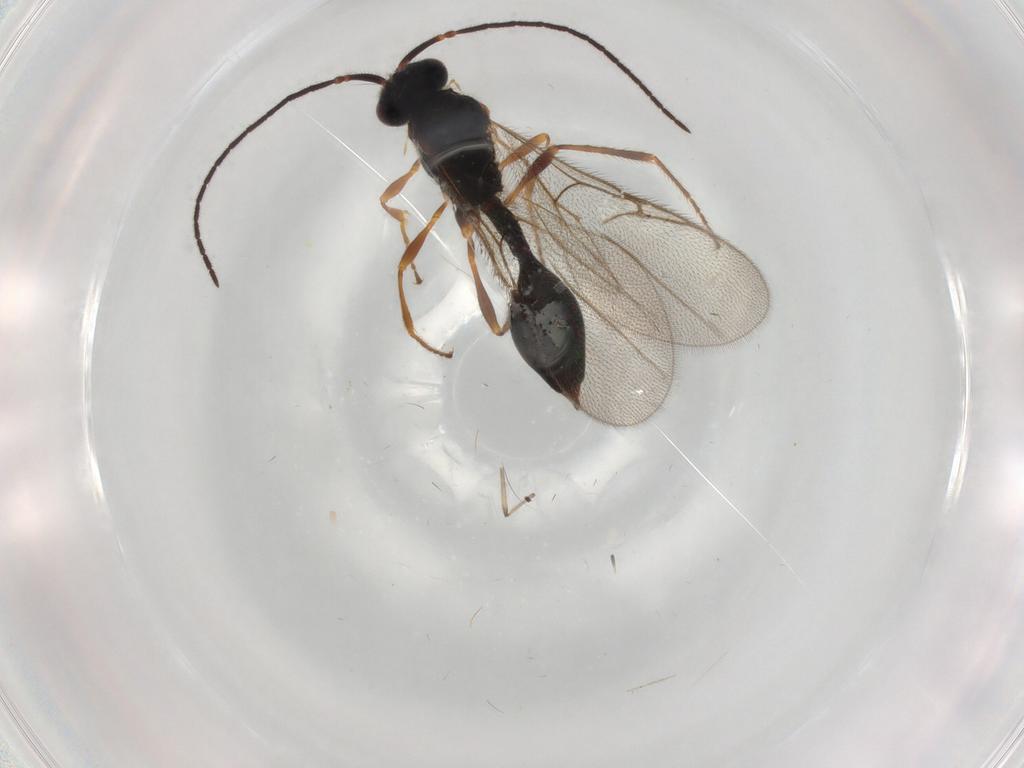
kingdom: Animalia
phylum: Arthropoda
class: Insecta
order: Hymenoptera
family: Diapriidae
